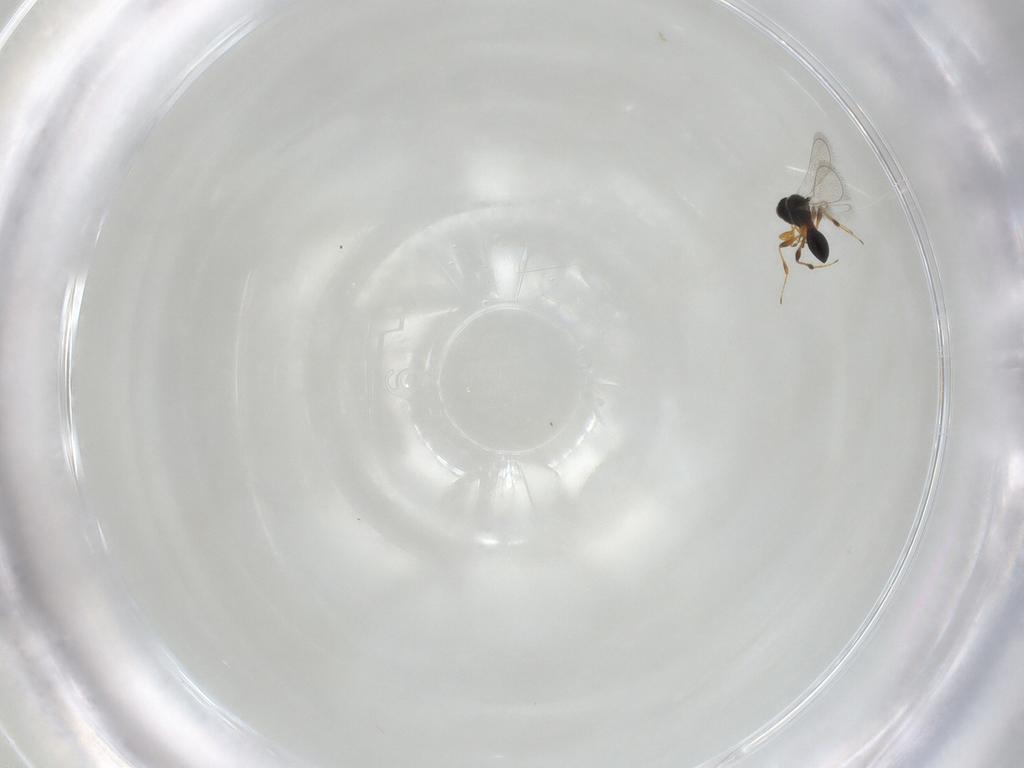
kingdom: Animalia
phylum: Arthropoda
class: Insecta
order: Hymenoptera
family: Platygastridae
